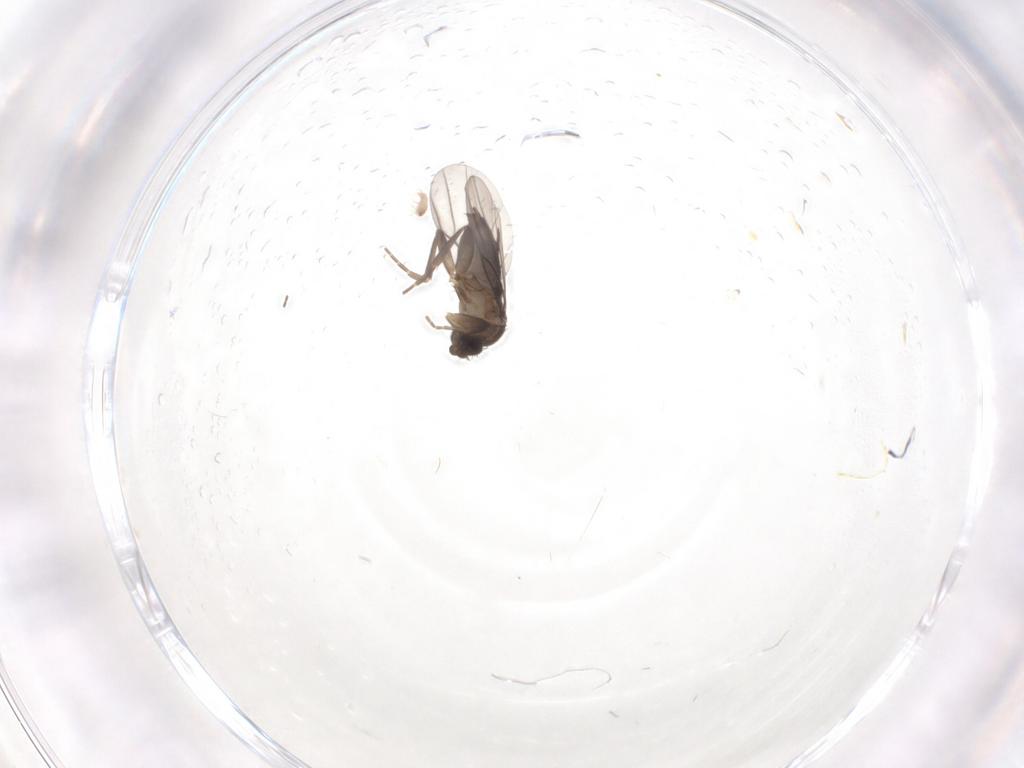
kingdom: Animalia
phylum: Arthropoda
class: Insecta
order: Diptera
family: Phoridae
